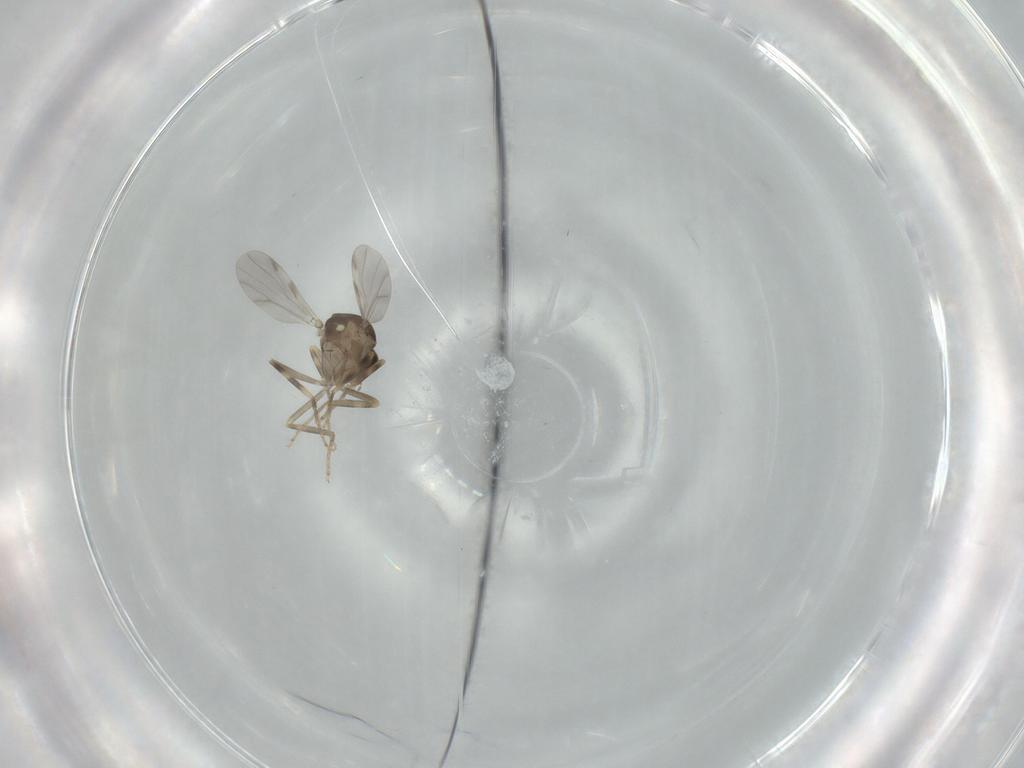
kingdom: Animalia
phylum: Arthropoda
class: Insecta
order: Diptera
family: Ceratopogonidae
